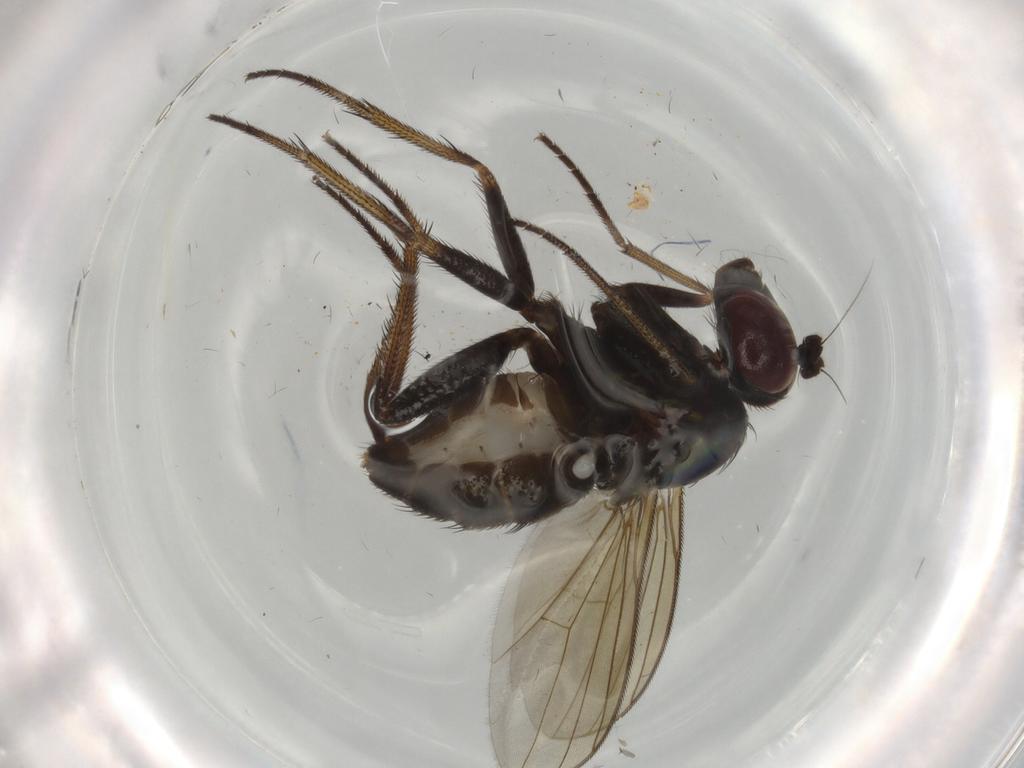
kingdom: Animalia
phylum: Arthropoda
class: Insecta
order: Diptera
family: Dolichopodidae
